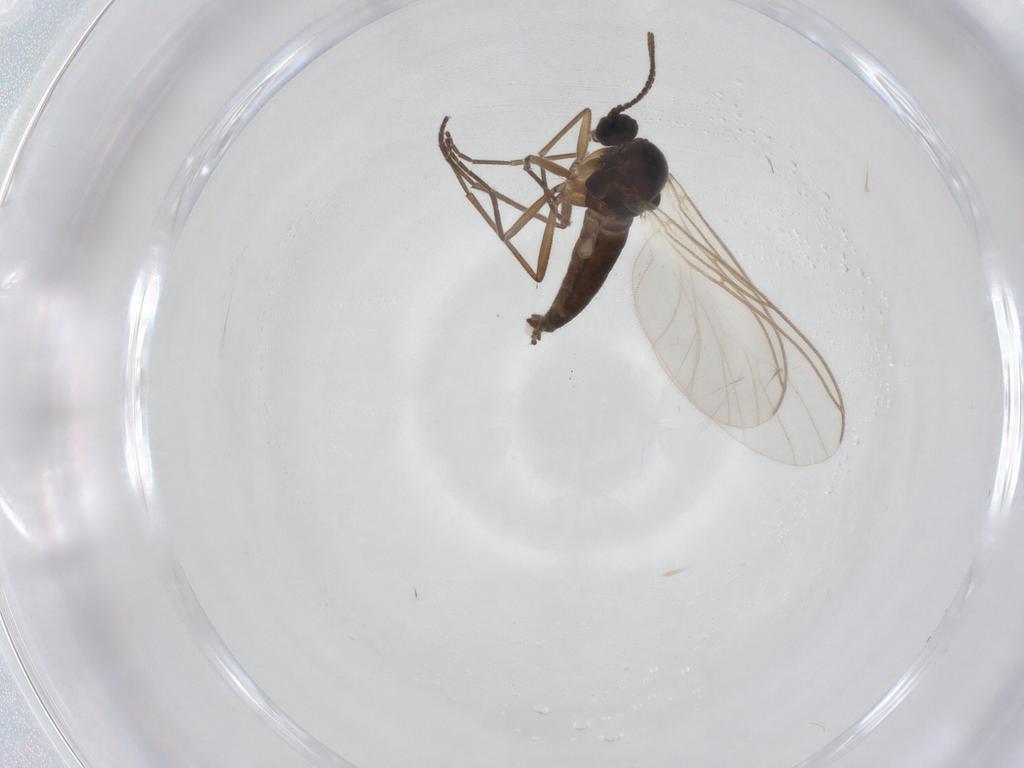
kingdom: Animalia
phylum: Arthropoda
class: Insecta
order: Diptera
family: Sciaridae
